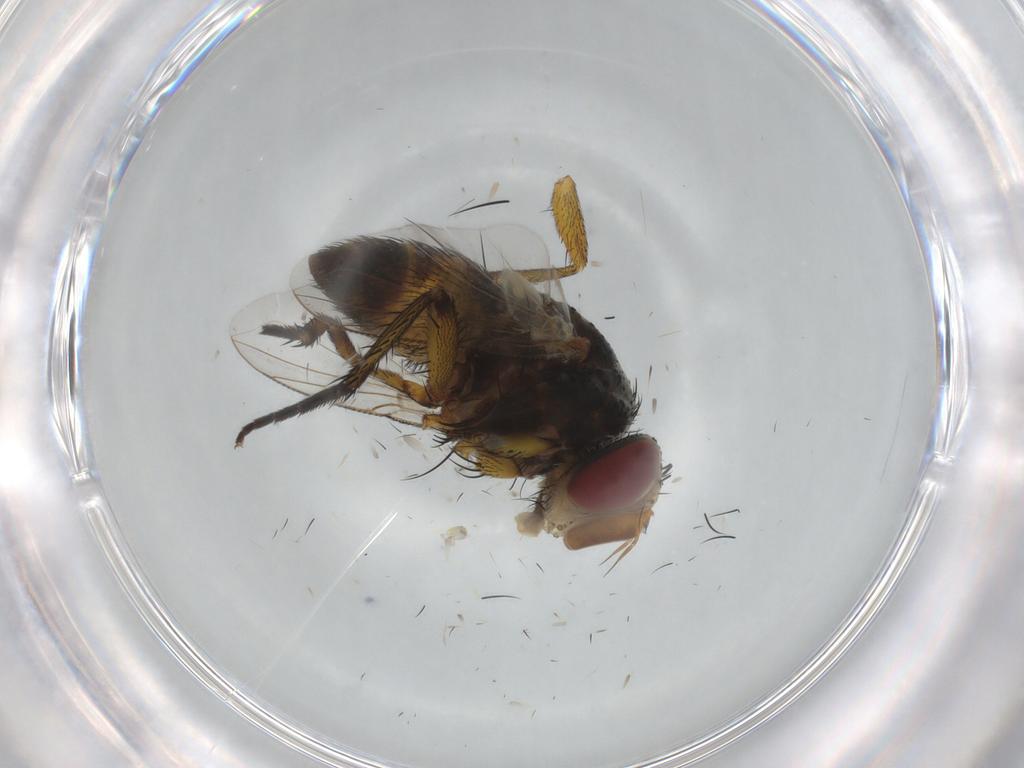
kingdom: Animalia
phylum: Arthropoda
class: Insecta
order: Diptera
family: Tachinidae
